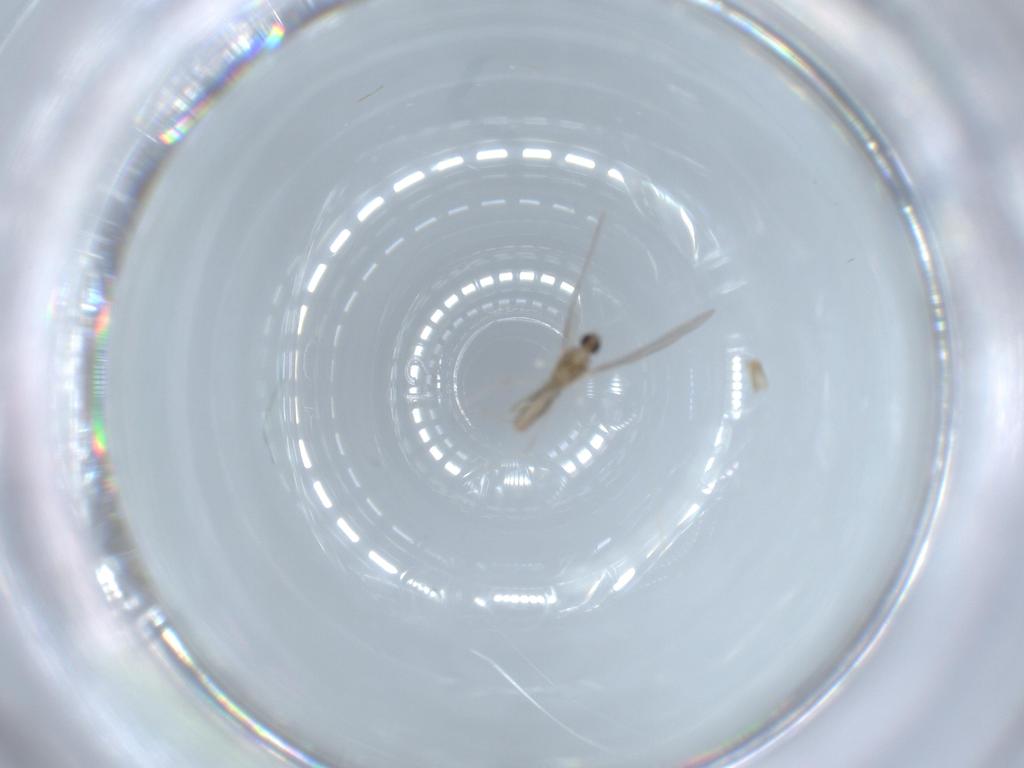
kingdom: Animalia
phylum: Arthropoda
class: Insecta
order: Diptera
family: Cecidomyiidae
